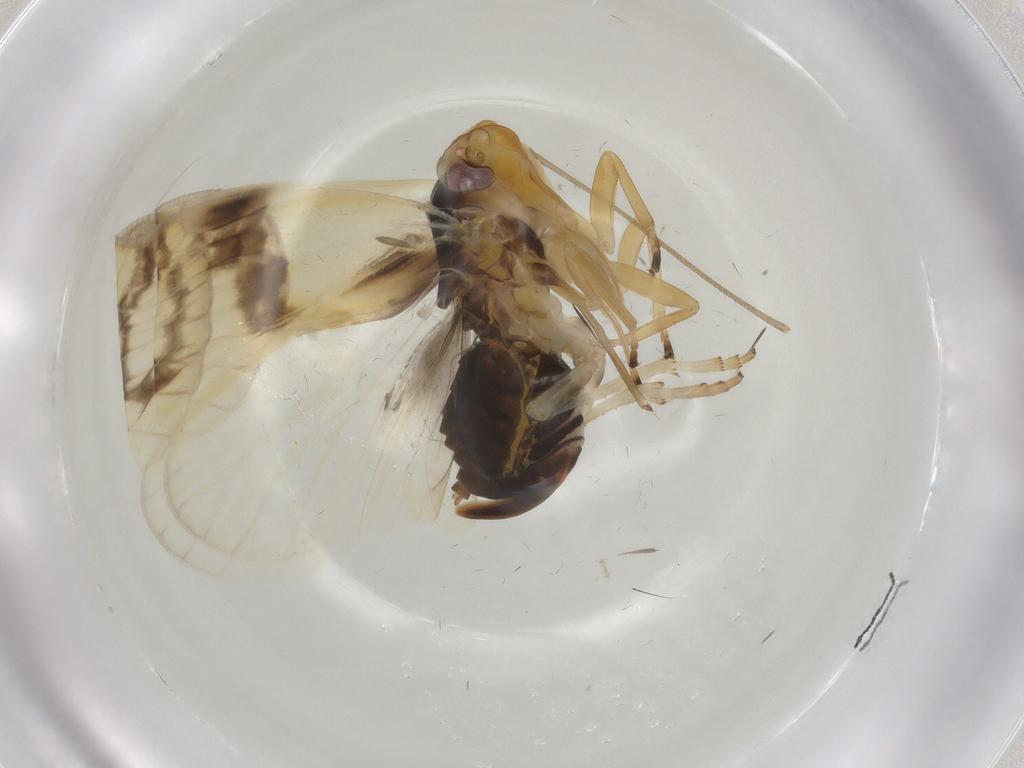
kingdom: Animalia
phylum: Arthropoda
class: Insecta
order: Hemiptera
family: Cixiidae
